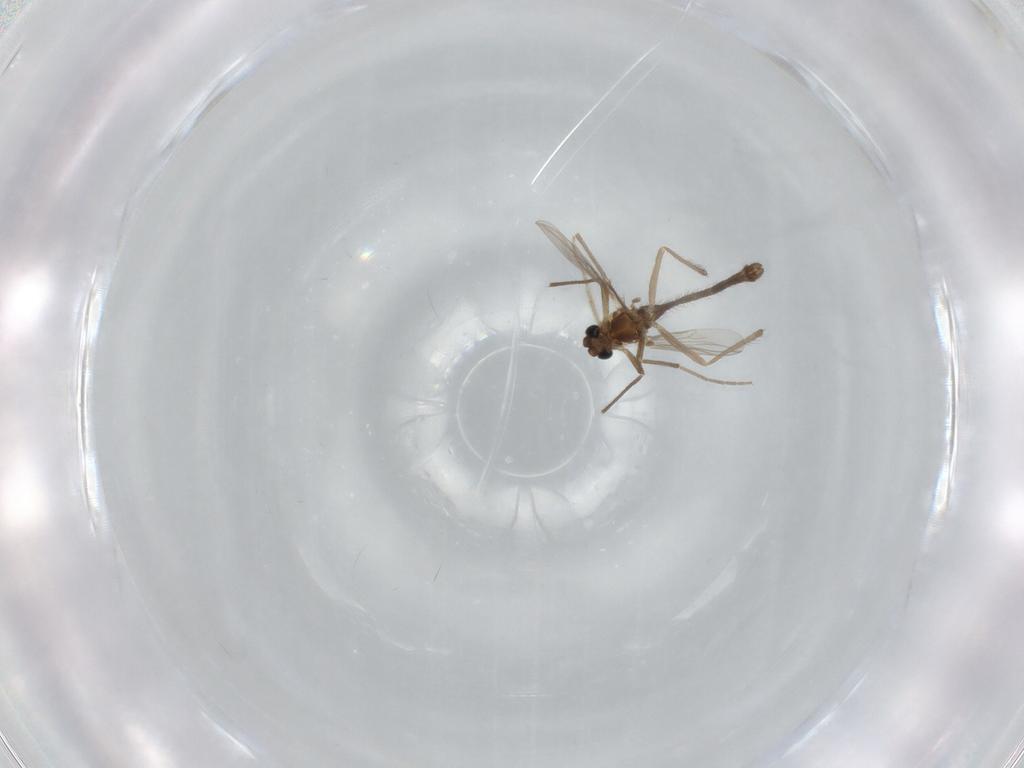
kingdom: Animalia
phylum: Arthropoda
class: Insecta
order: Diptera
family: Chironomidae
